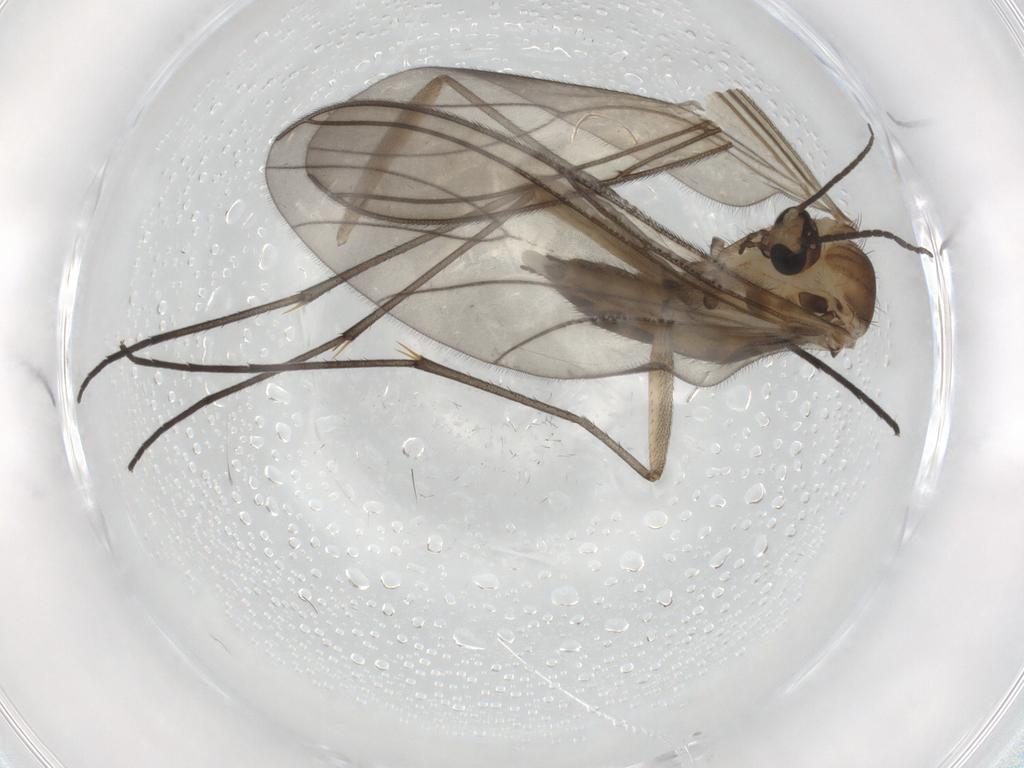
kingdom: Animalia
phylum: Arthropoda
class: Insecta
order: Diptera
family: Sciaridae
